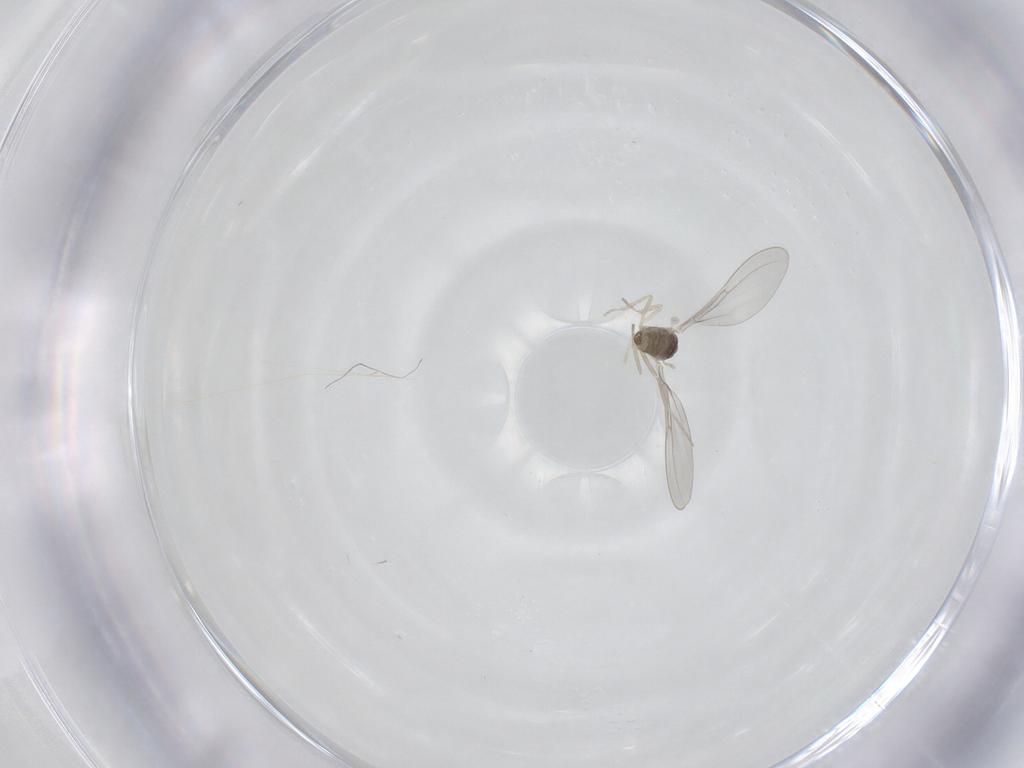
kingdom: Animalia
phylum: Arthropoda
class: Insecta
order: Diptera
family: Cecidomyiidae
